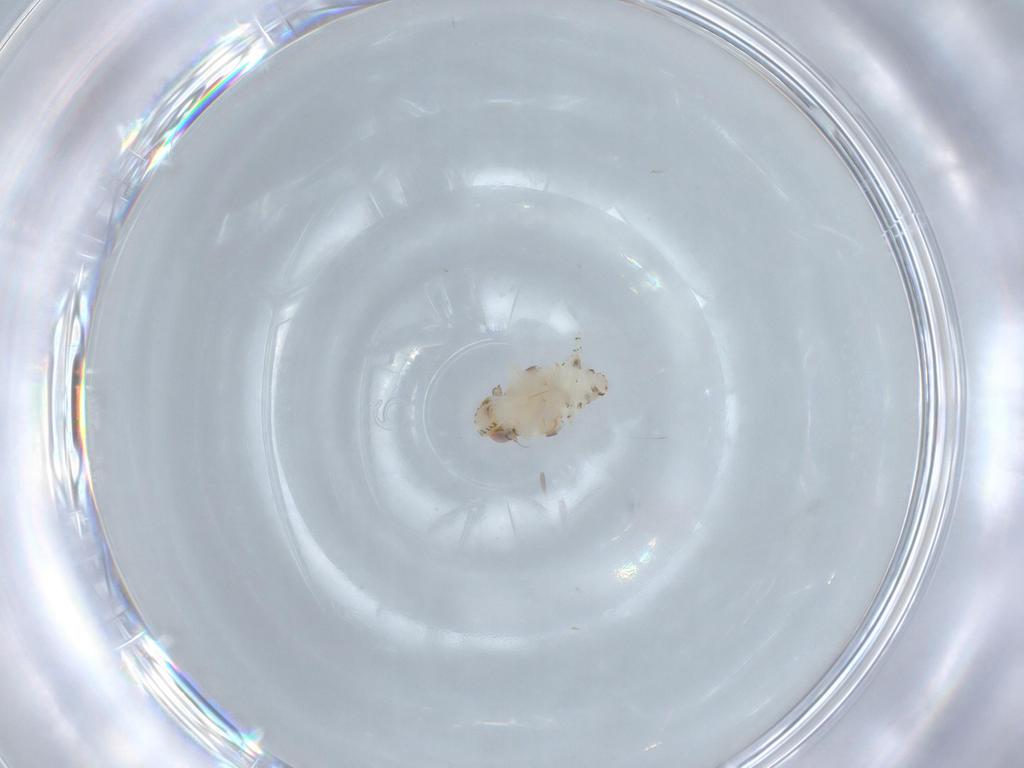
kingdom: Animalia
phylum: Arthropoda
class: Insecta
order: Hemiptera
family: Nogodinidae
